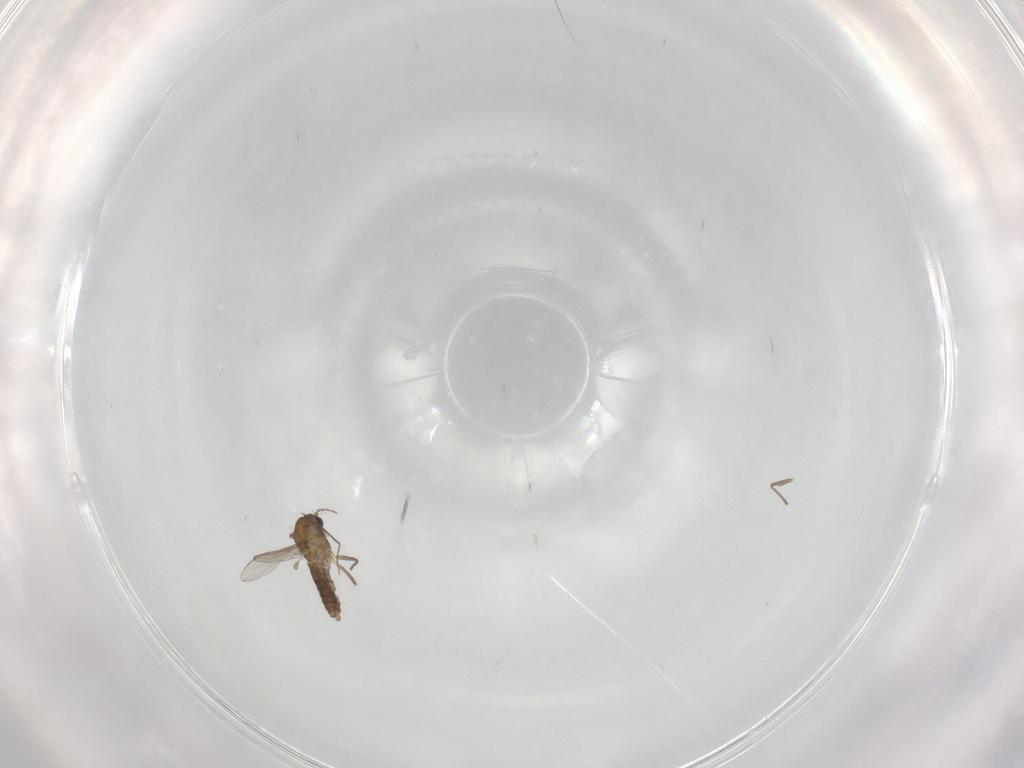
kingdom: Animalia
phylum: Arthropoda
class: Insecta
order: Diptera
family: Chironomidae
